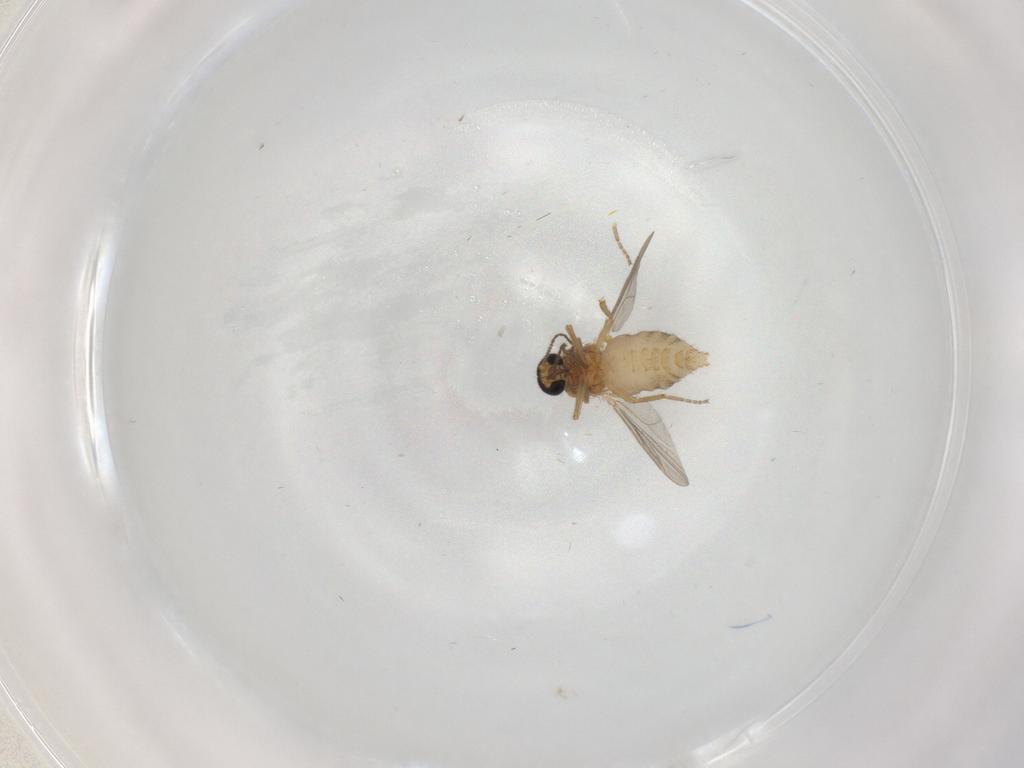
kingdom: Animalia
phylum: Arthropoda
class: Insecta
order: Diptera
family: Ceratopogonidae
